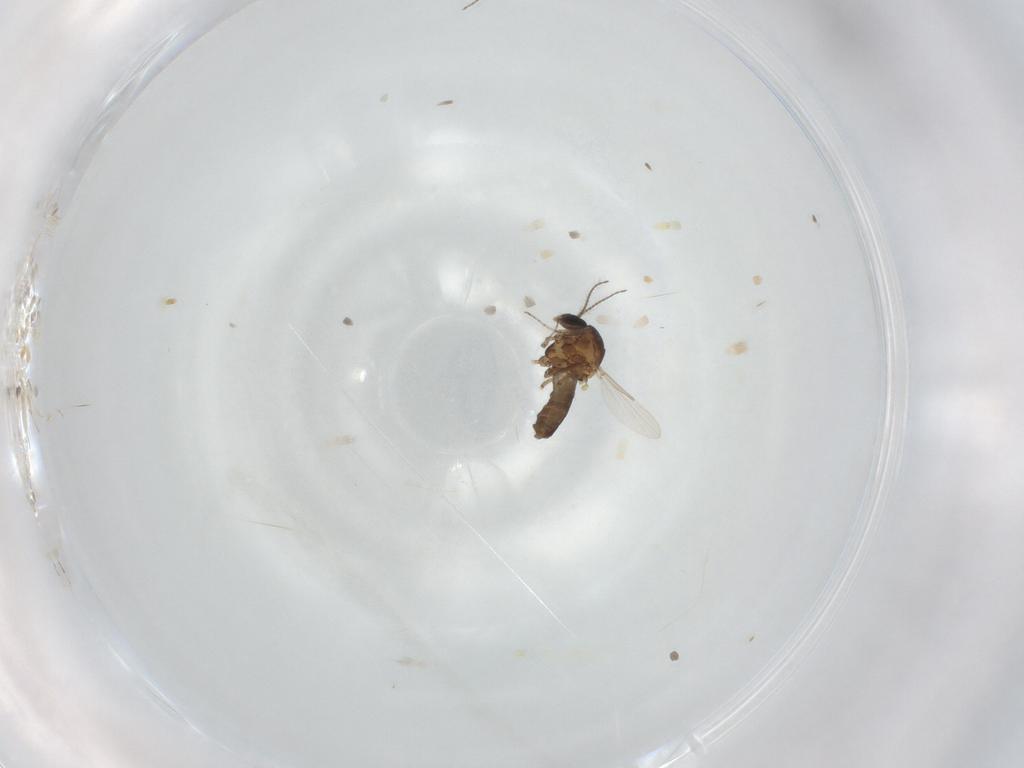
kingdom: Animalia
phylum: Arthropoda
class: Insecta
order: Diptera
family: Ceratopogonidae
